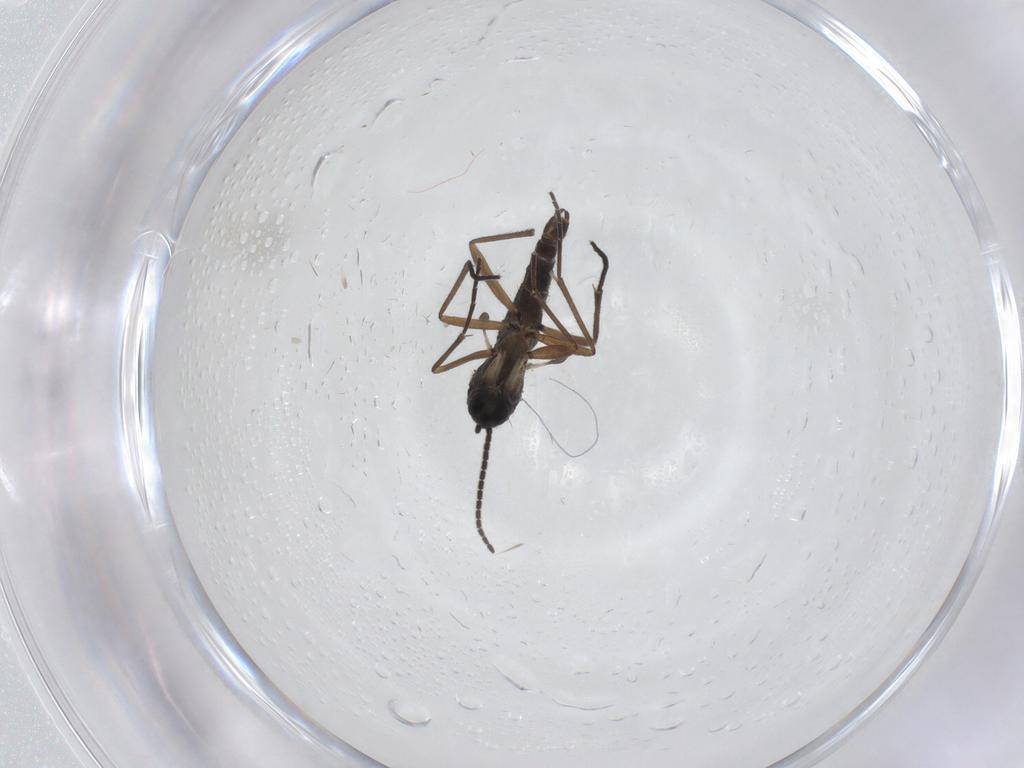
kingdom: Animalia
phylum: Arthropoda
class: Insecta
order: Diptera
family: Sciaridae
